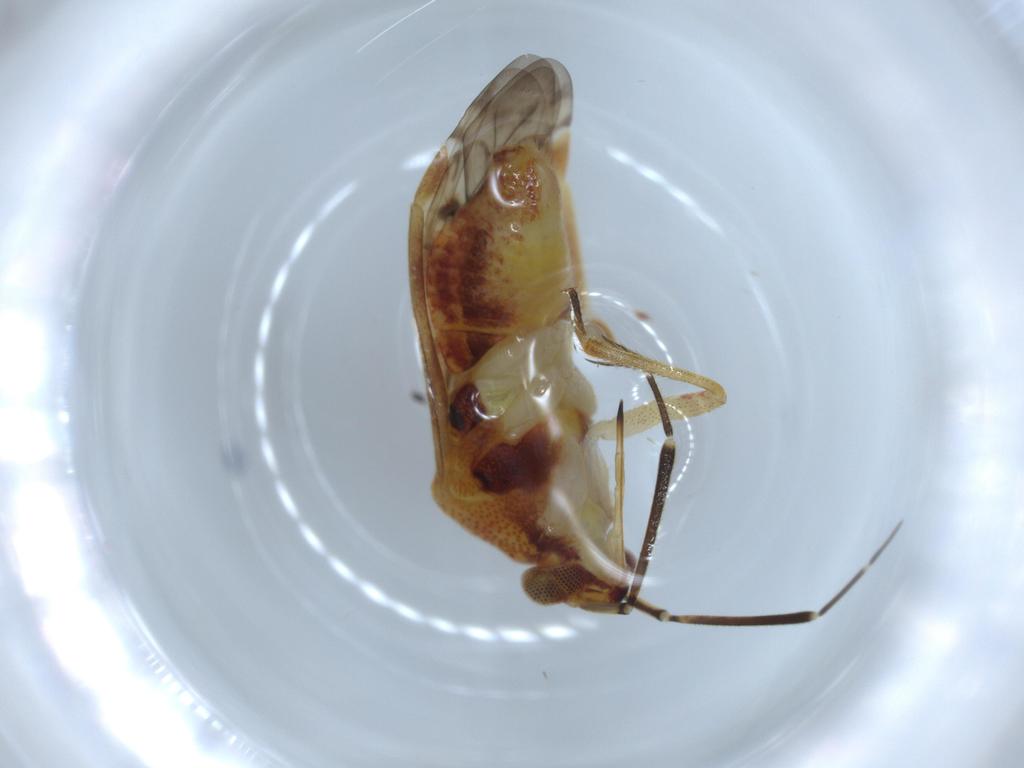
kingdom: Animalia
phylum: Arthropoda
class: Insecta
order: Hemiptera
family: Miridae
